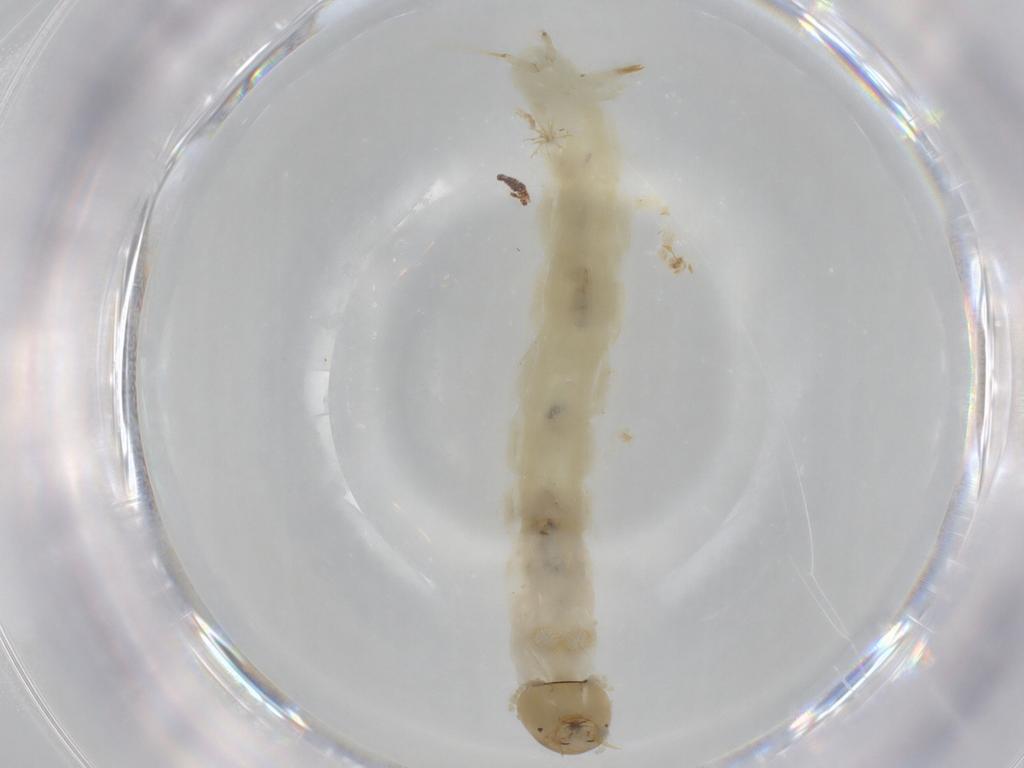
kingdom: Animalia
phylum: Arthropoda
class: Insecta
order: Diptera
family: Chironomidae
